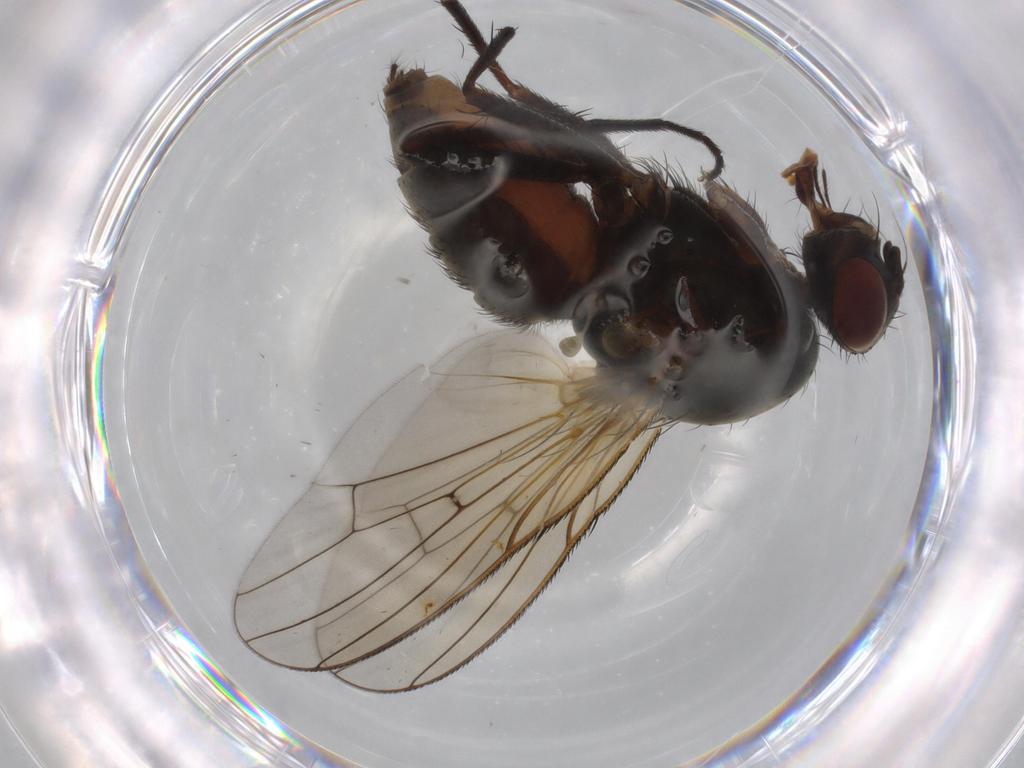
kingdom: Animalia
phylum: Arthropoda
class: Insecta
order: Diptera
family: Anthomyiidae
